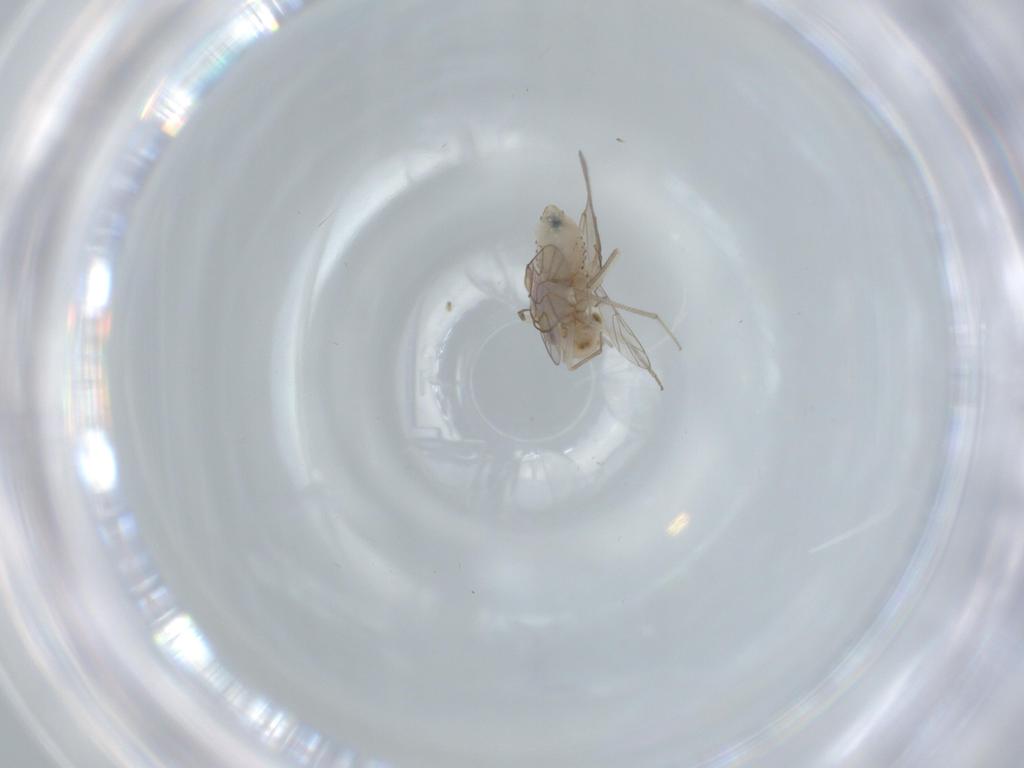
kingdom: Animalia
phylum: Arthropoda
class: Insecta
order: Psocodea
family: Lachesillidae
